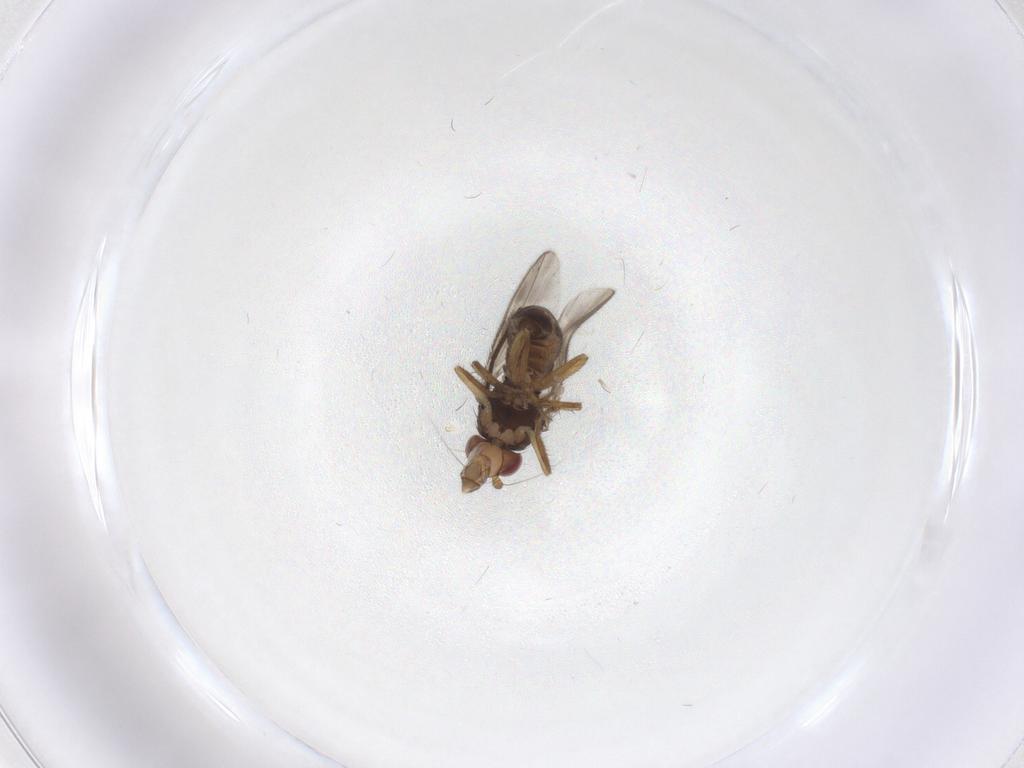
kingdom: Animalia
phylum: Arthropoda
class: Insecta
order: Diptera
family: Sphaeroceridae
